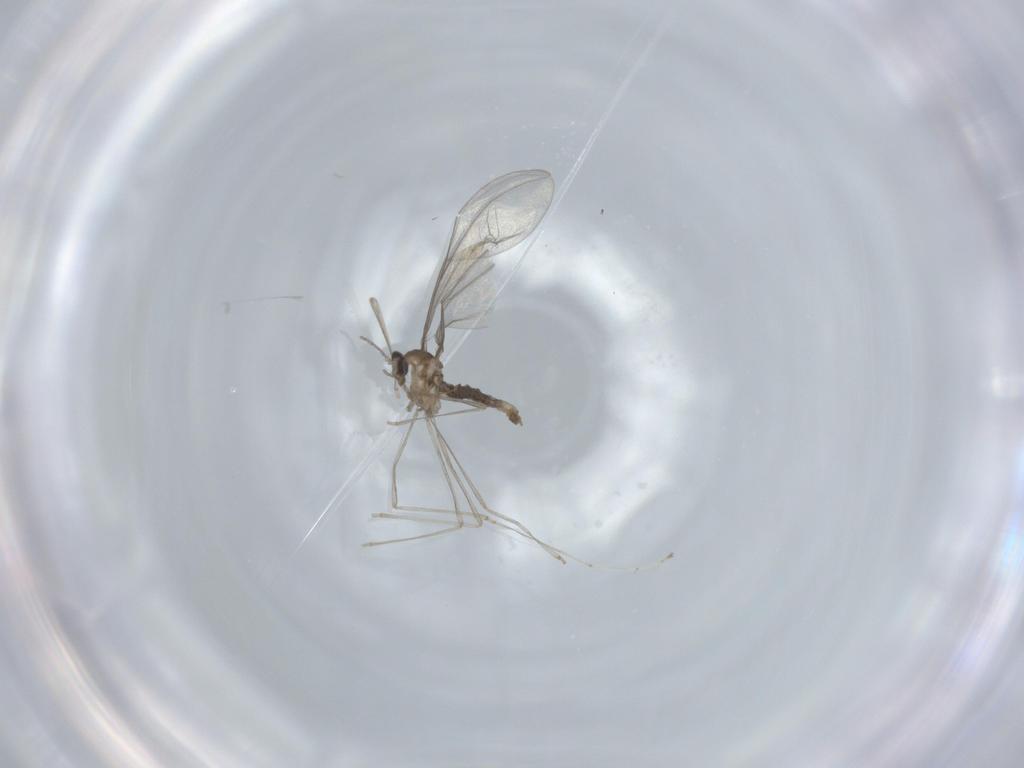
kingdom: Animalia
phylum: Arthropoda
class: Insecta
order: Diptera
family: Cecidomyiidae
